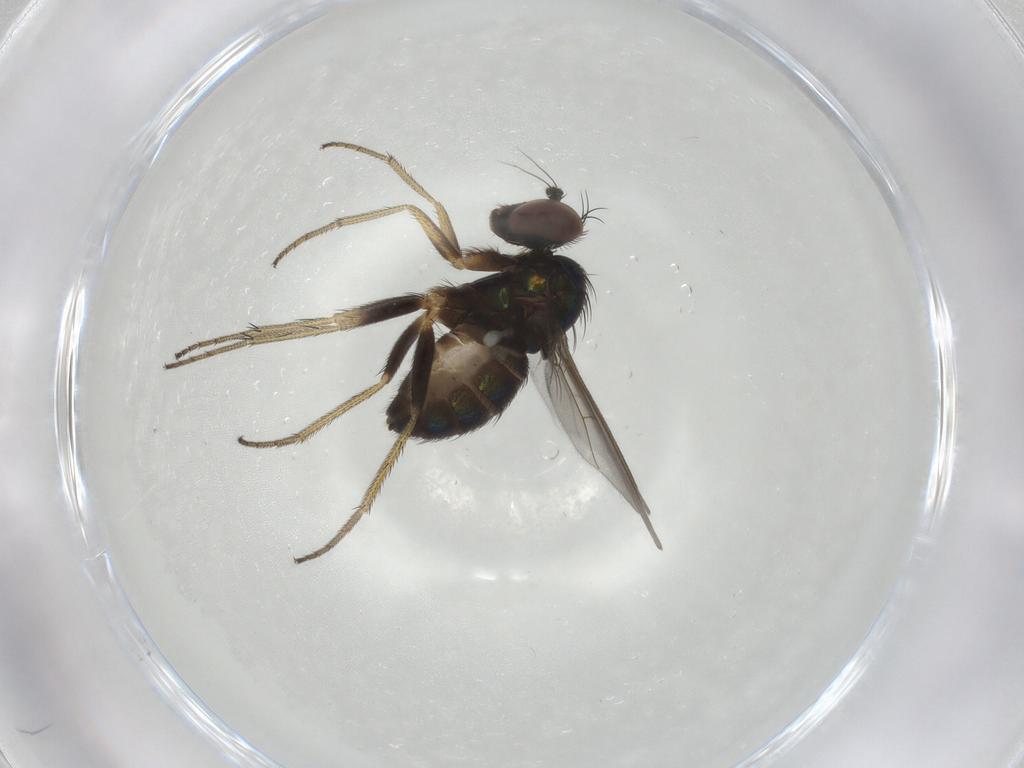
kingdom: Animalia
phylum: Arthropoda
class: Insecta
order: Diptera
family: Dolichopodidae
